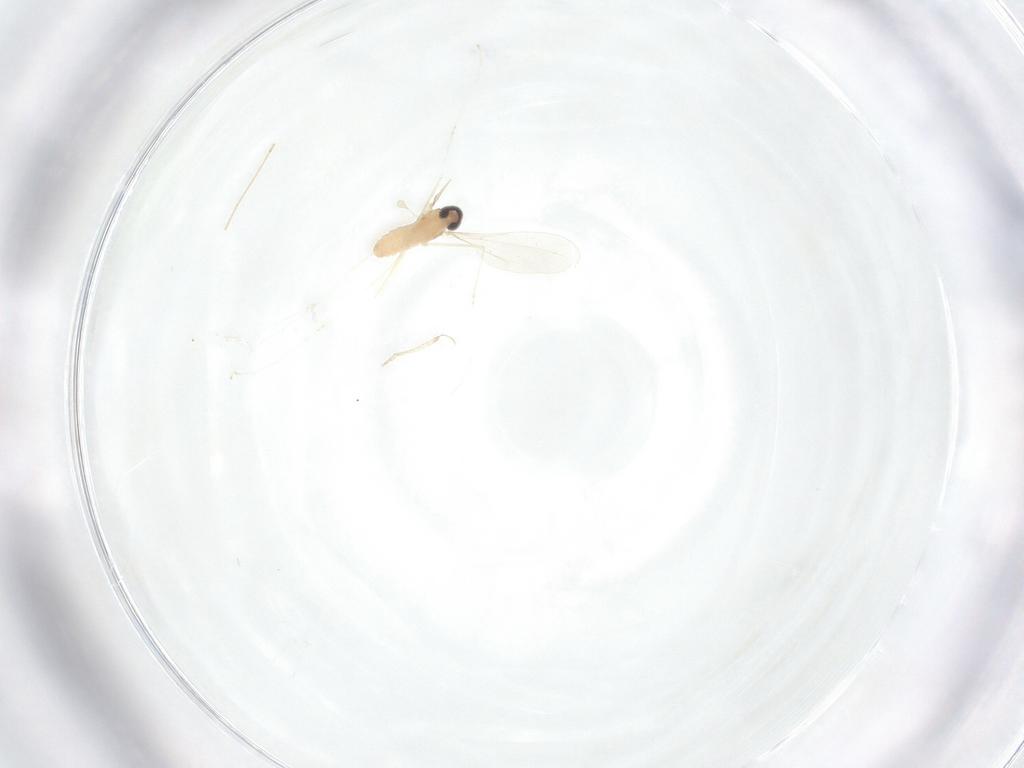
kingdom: Animalia
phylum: Arthropoda
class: Insecta
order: Diptera
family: Cecidomyiidae
